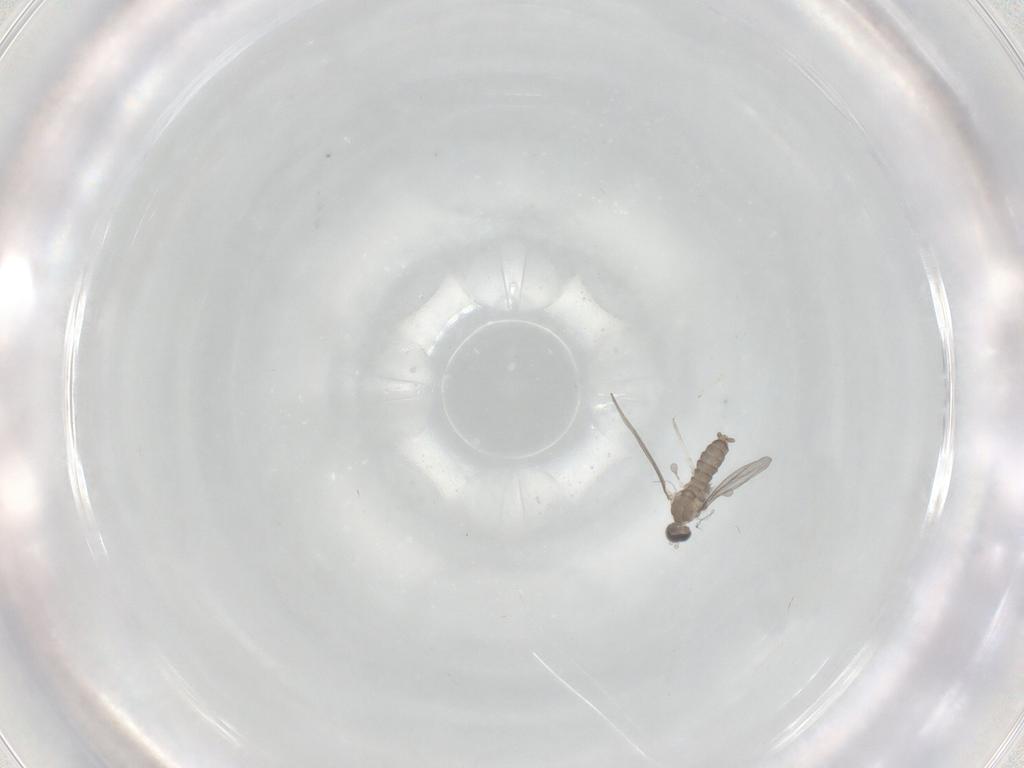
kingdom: Animalia
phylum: Arthropoda
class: Insecta
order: Diptera
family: Cecidomyiidae
